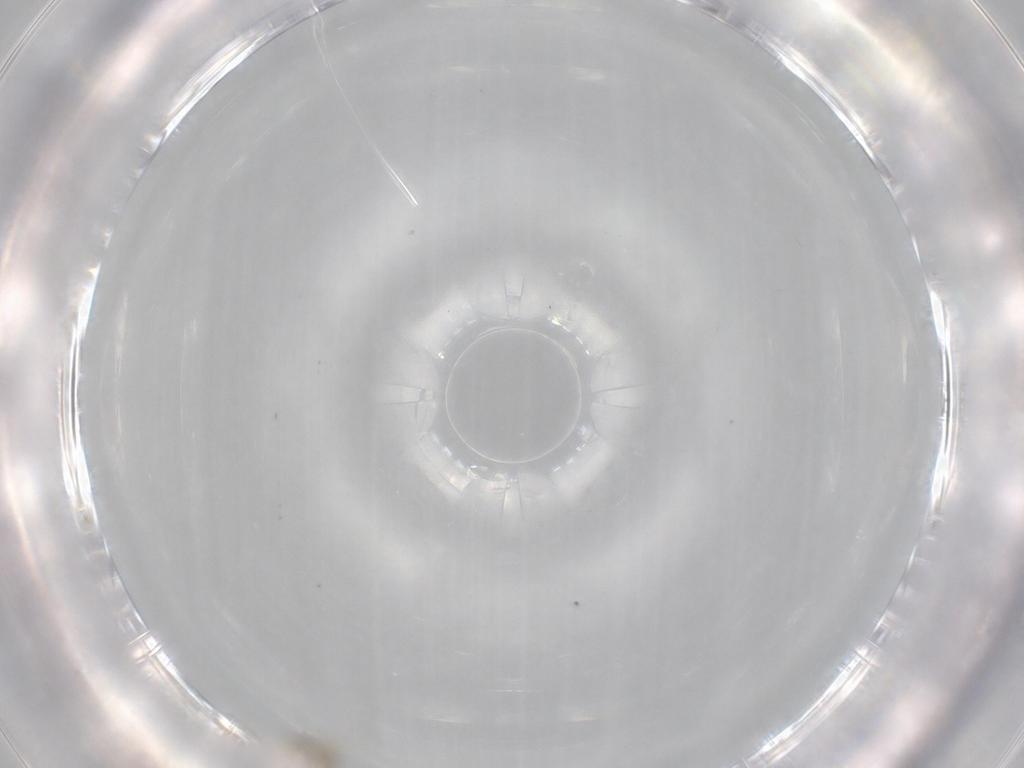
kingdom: Animalia
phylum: Arthropoda
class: Insecta
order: Diptera
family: Cecidomyiidae
